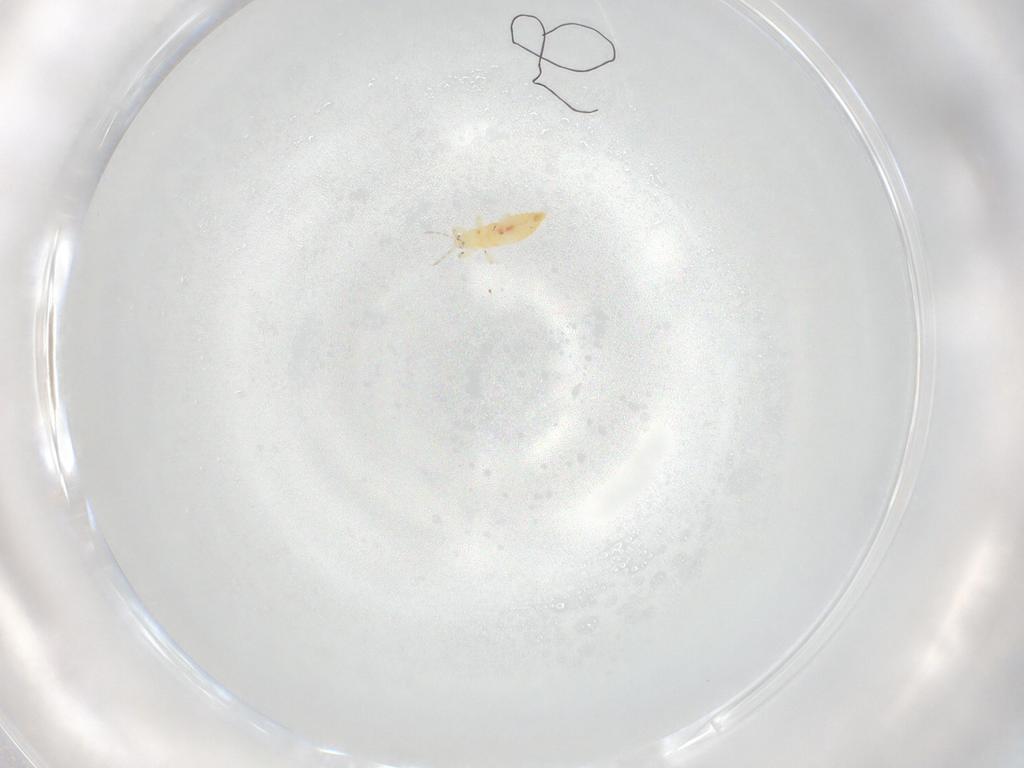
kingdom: Animalia
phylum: Arthropoda
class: Insecta
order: Thysanoptera
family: Aeolothripidae
